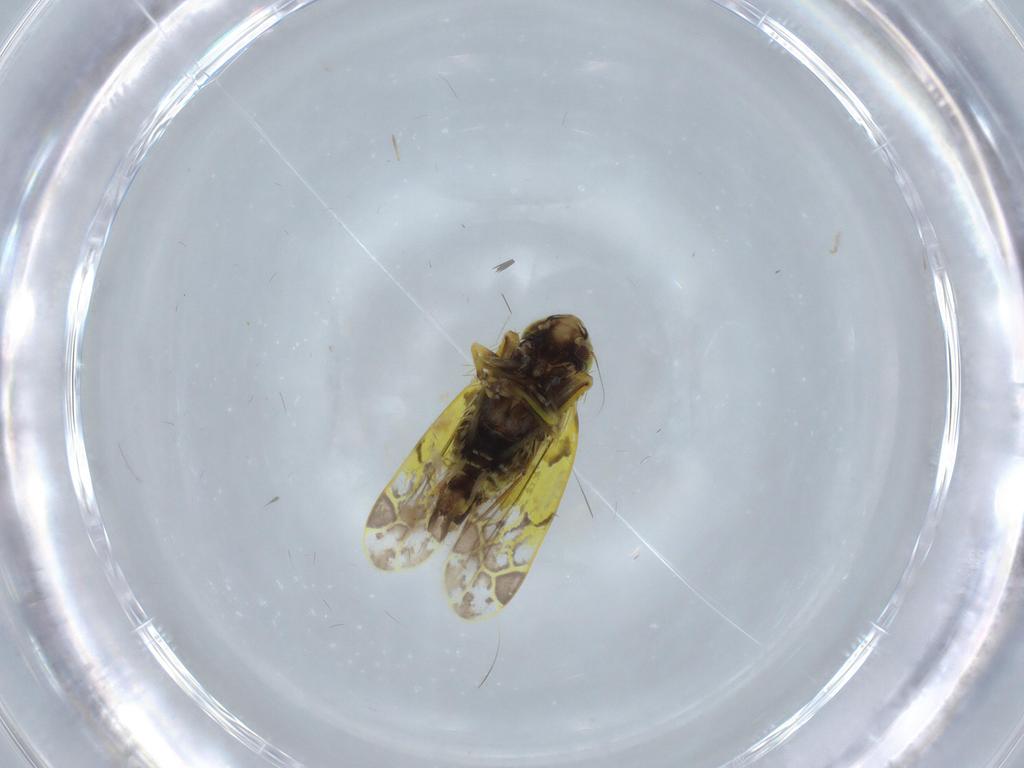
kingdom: Animalia
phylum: Arthropoda
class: Insecta
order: Hemiptera
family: Cicadellidae
